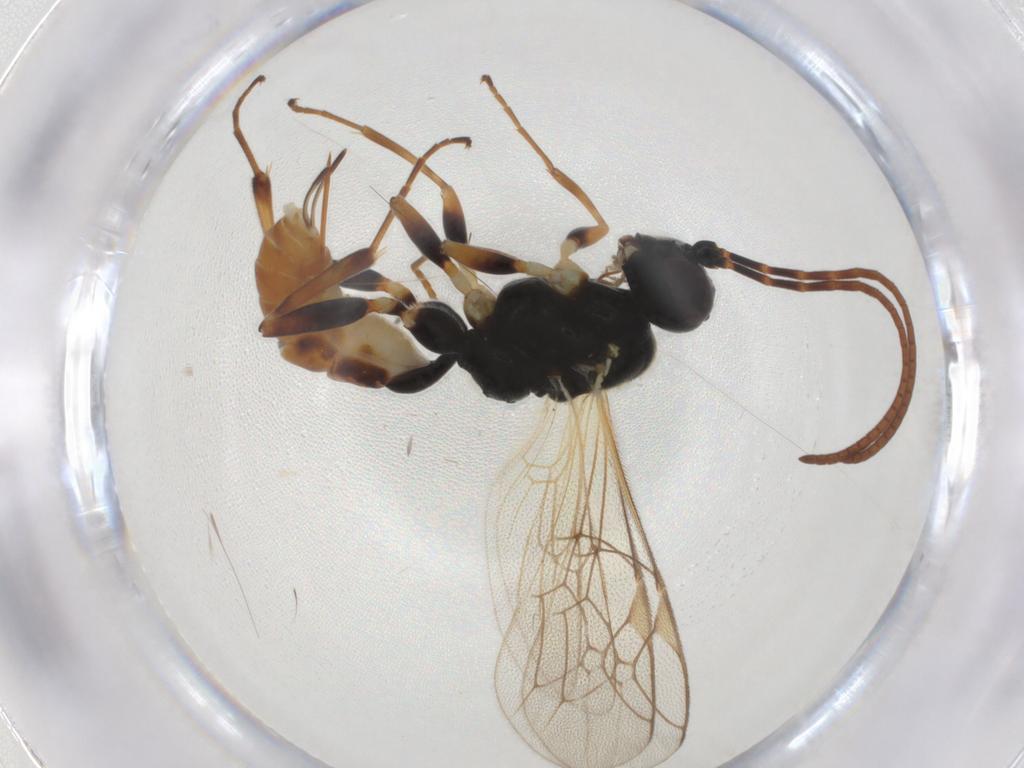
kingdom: Animalia
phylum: Arthropoda
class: Insecta
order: Hymenoptera
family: Ichneumonidae
